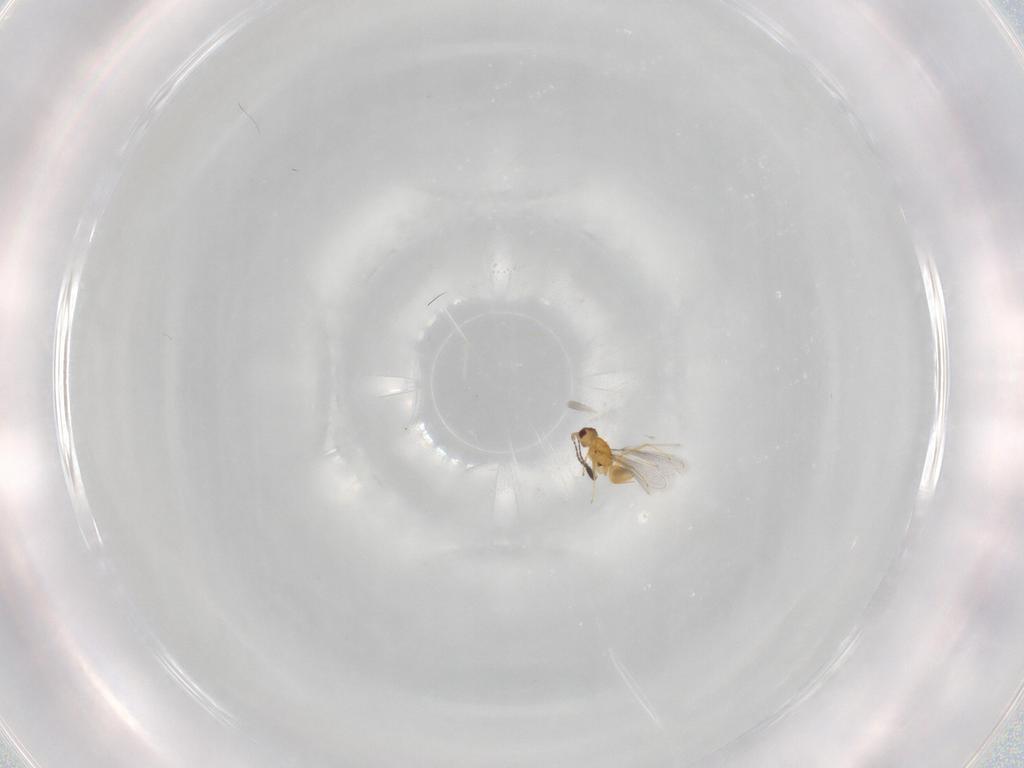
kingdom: Animalia
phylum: Arthropoda
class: Insecta
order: Hymenoptera
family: Mymaridae
